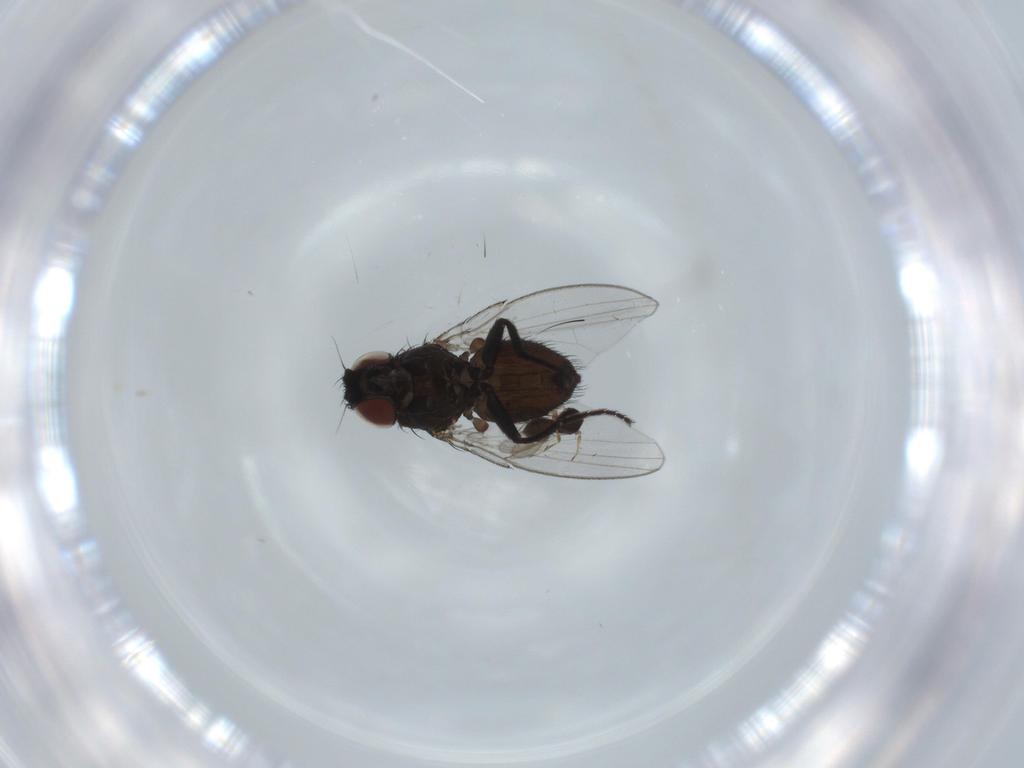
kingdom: Animalia
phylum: Arthropoda
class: Insecta
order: Diptera
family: Milichiidae
